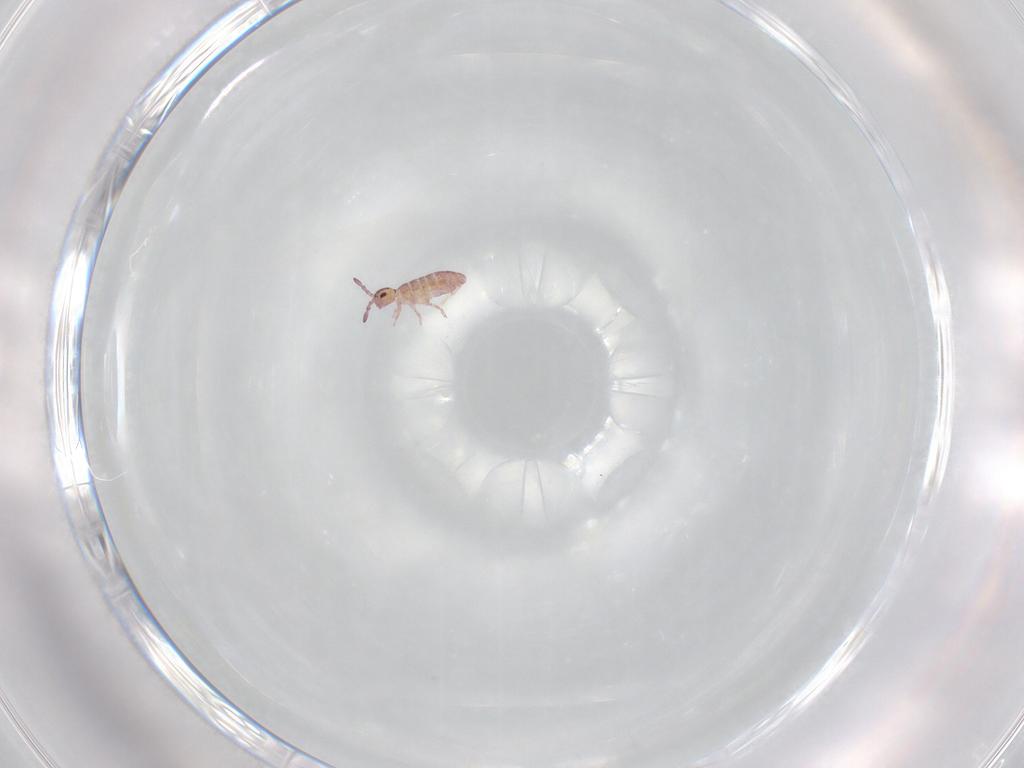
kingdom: Animalia
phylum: Arthropoda
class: Collembola
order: Entomobryomorpha
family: Isotomidae
